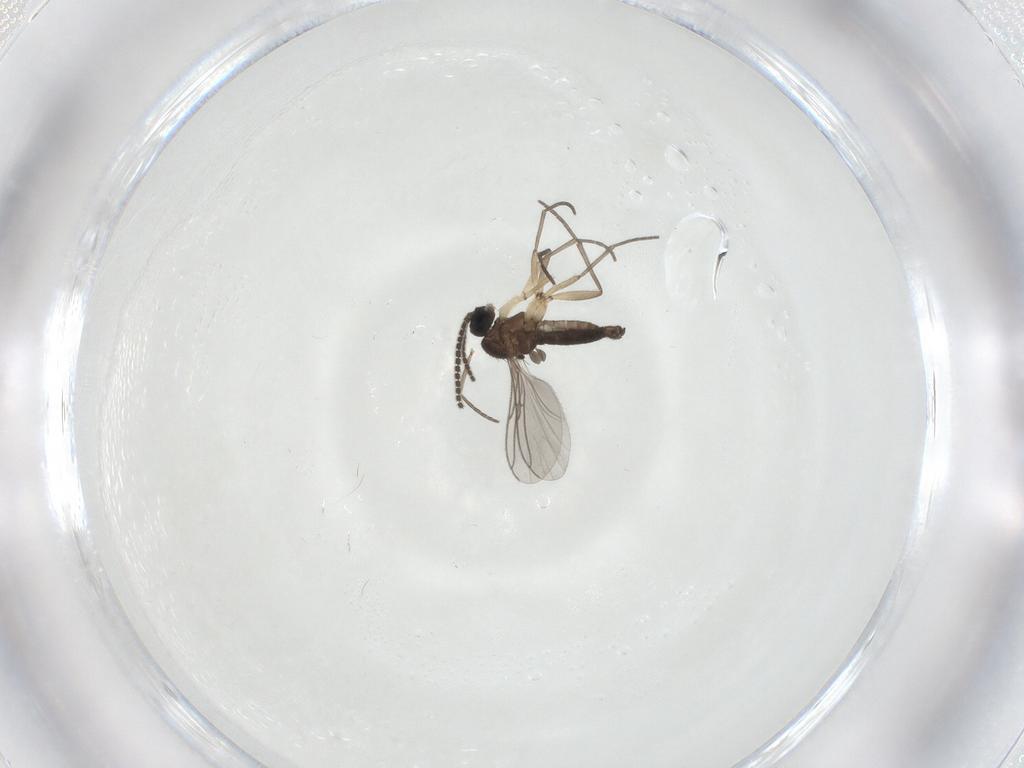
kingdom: Animalia
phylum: Arthropoda
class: Insecta
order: Diptera
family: Sciaridae
